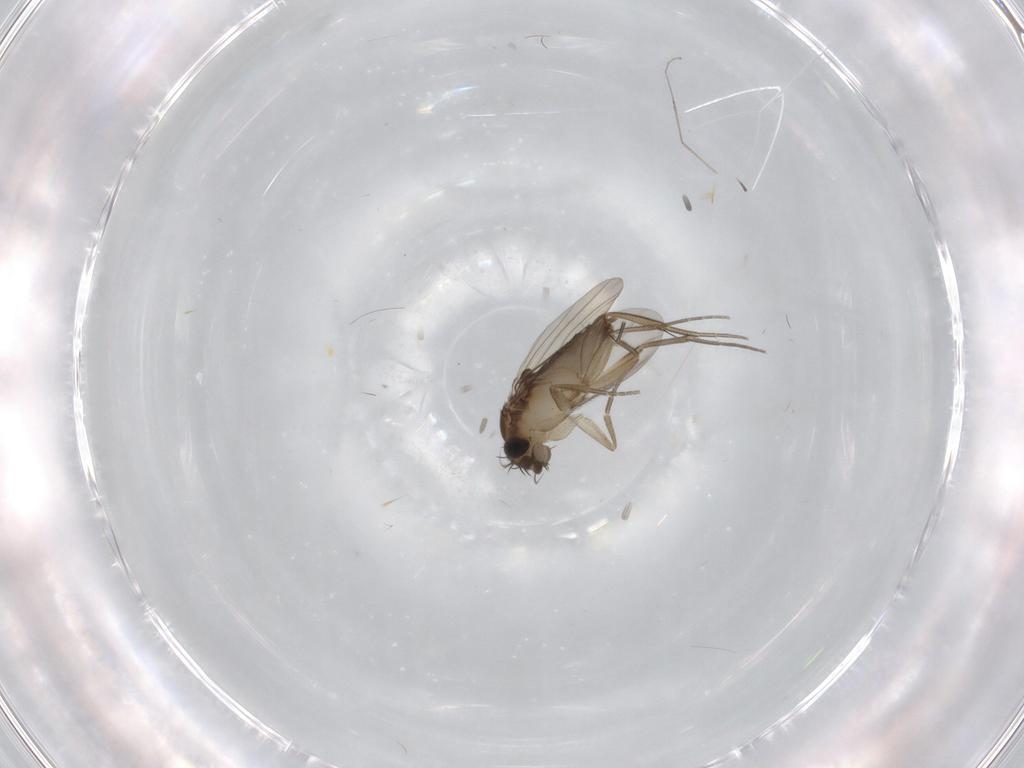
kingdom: Animalia
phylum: Arthropoda
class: Insecta
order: Diptera
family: Phoridae
